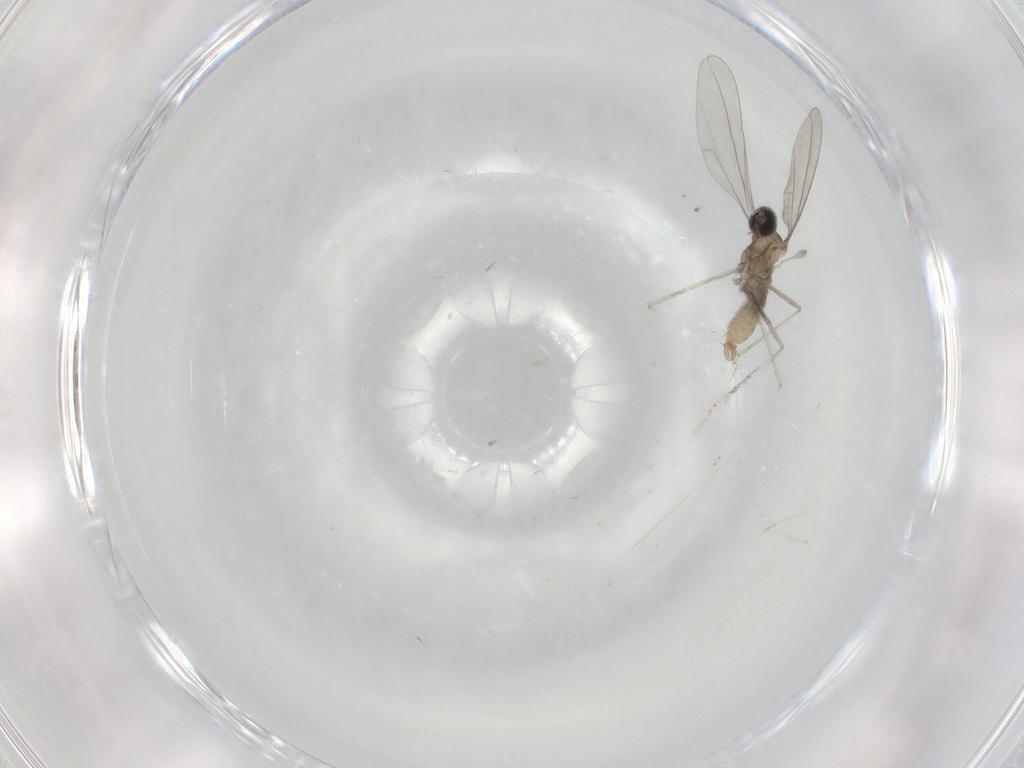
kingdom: Animalia
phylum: Arthropoda
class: Insecta
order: Diptera
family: Cecidomyiidae
